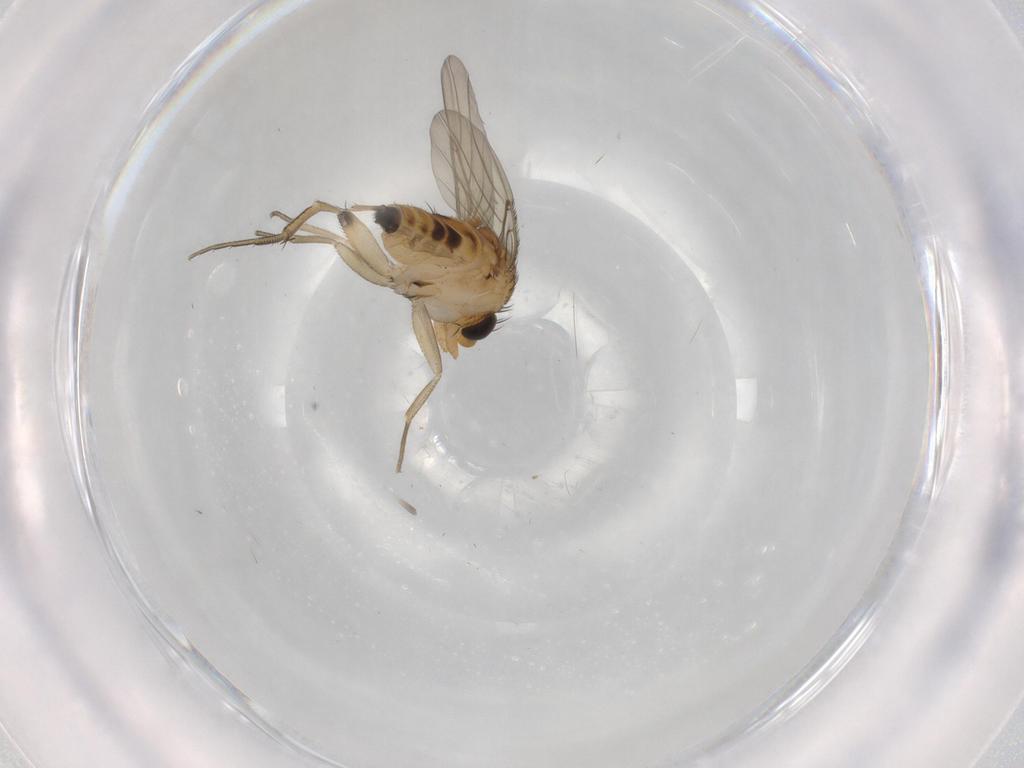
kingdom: Animalia
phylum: Arthropoda
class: Insecta
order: Diptera
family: Phoridae
